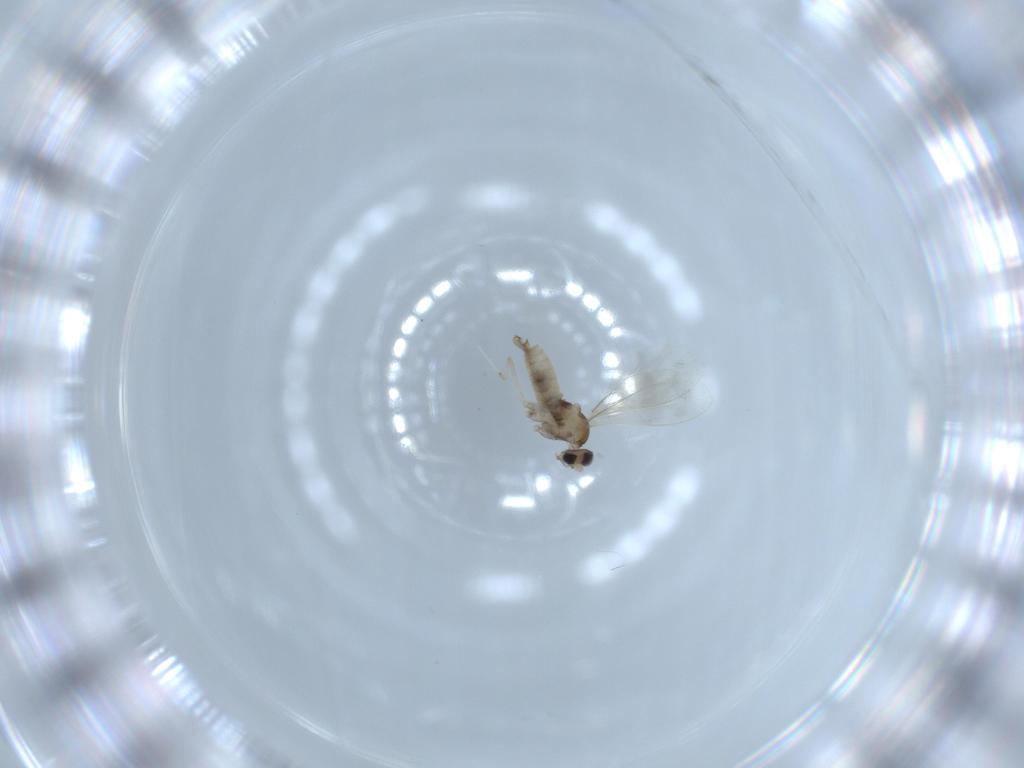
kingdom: Animalia
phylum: Arthropoda
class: Insecta
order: Diptera
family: Cecidomyiidae
